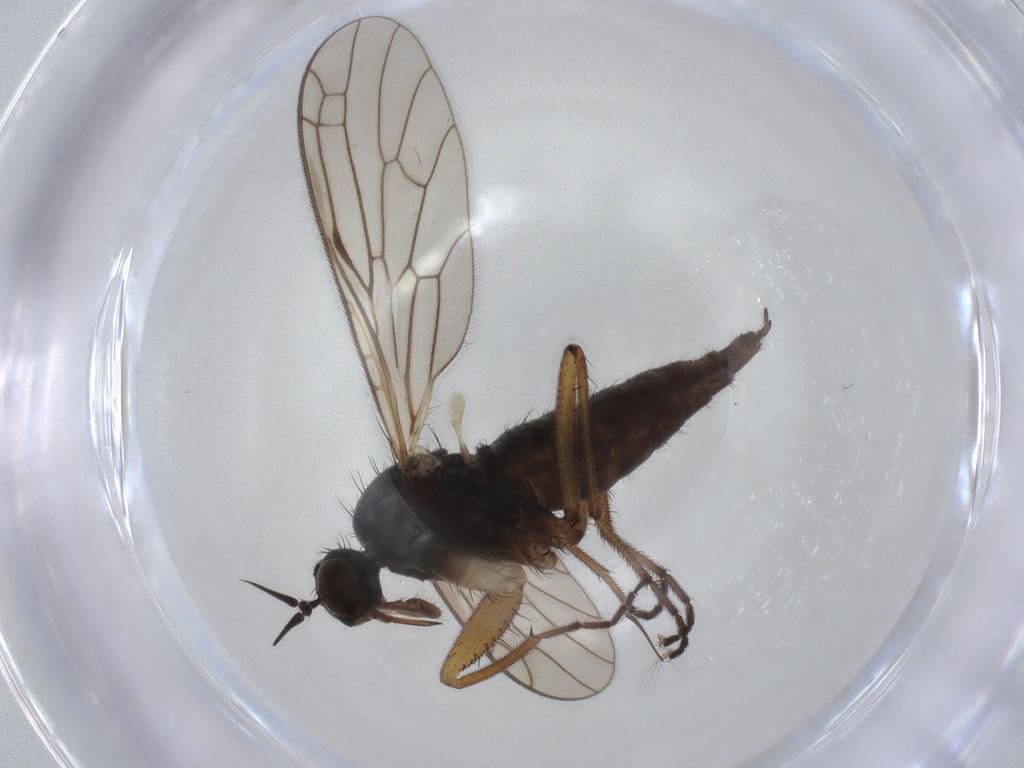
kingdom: Animalia
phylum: Arthropoda
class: Insecta
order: Diptera
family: Empididae
